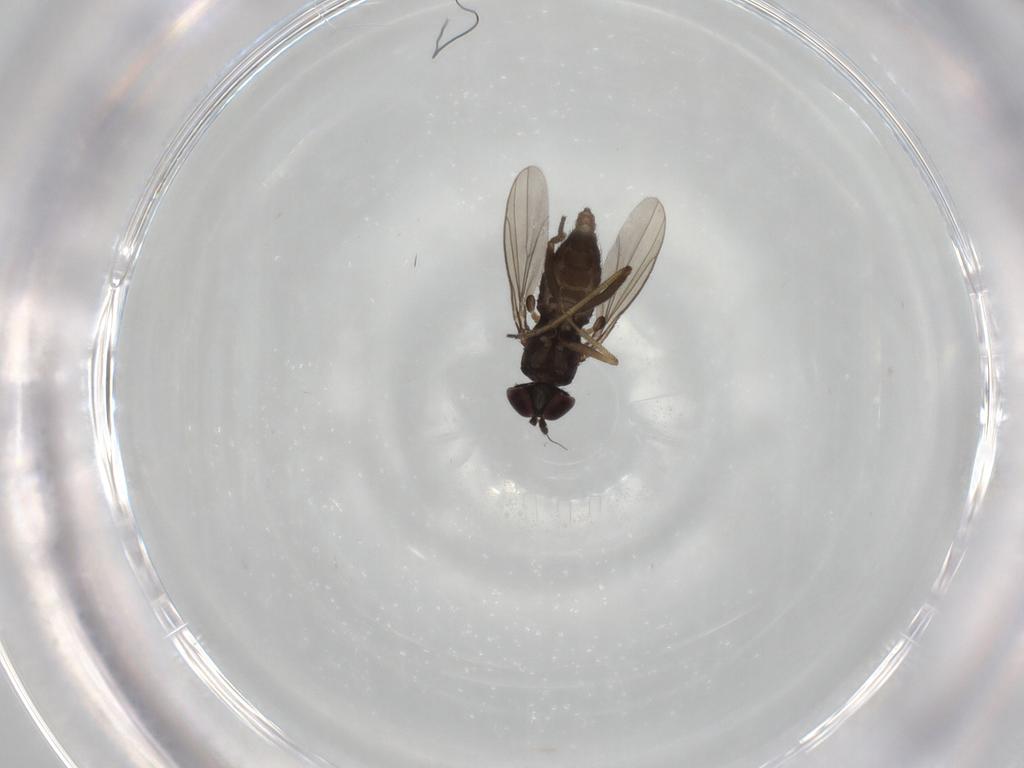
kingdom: Animalia
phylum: Arthropoda
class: Insecta
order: Diptera
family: Dolichopodidae
